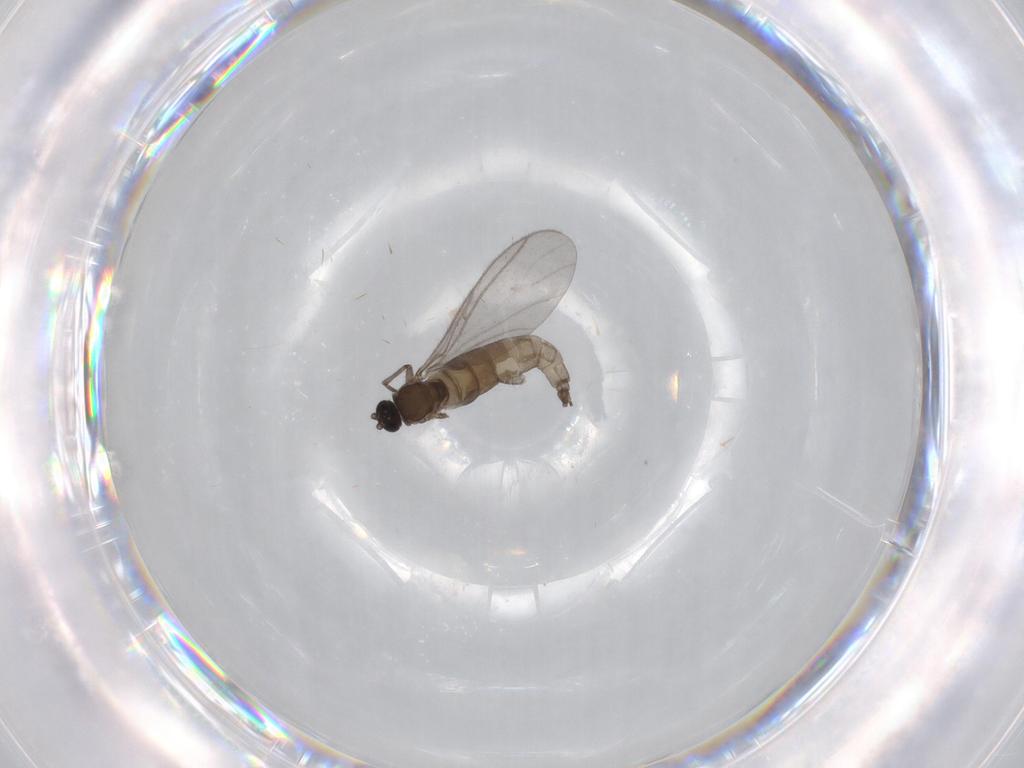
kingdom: Animalia
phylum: Arthropoda
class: Insecta
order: Diptera
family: Sciaridae
